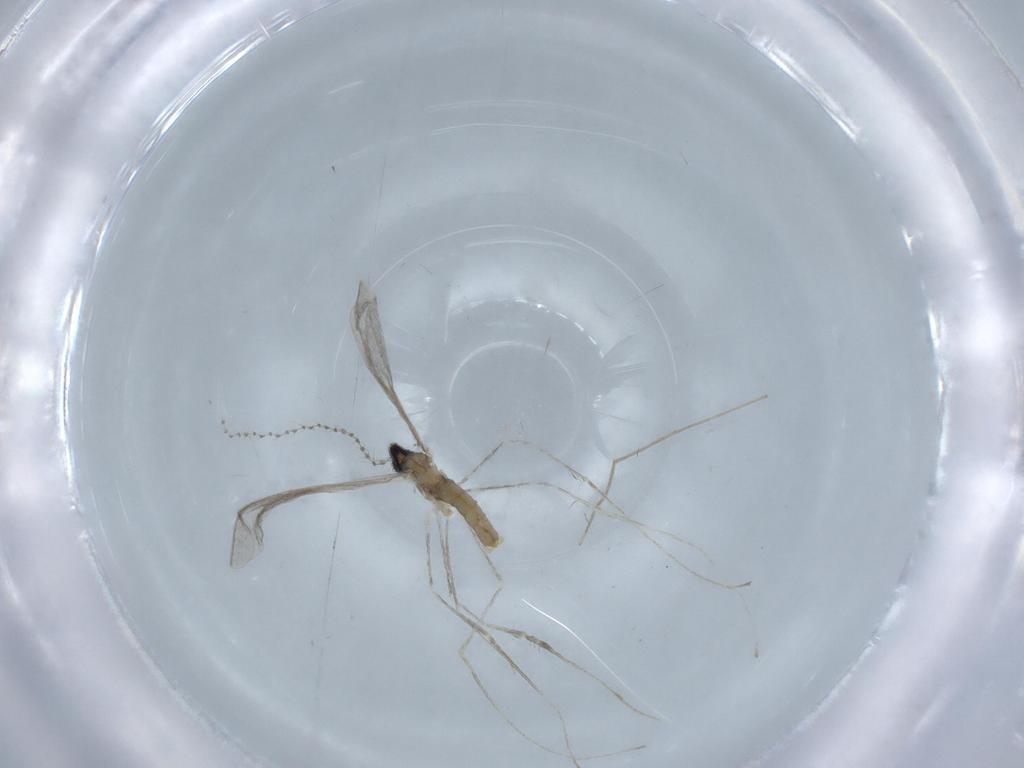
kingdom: Animalia
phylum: Arthropoda
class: Insecta
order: Diptera
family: Cecidomyiidae
